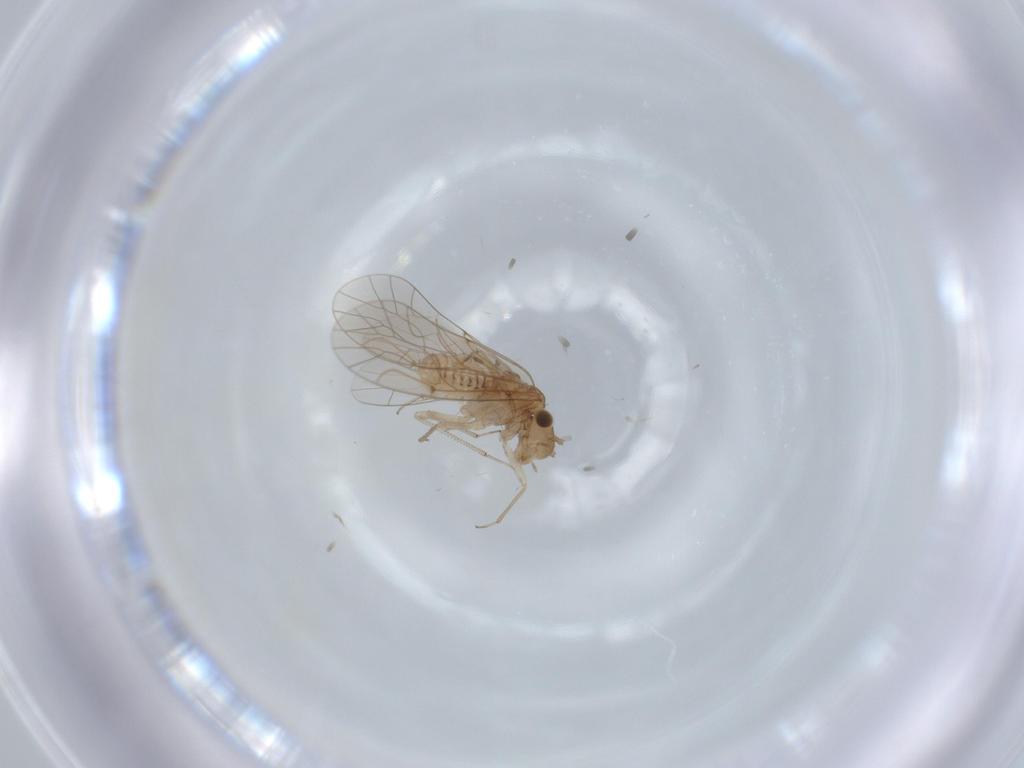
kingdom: Animalia
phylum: Arthropoda
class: Insecta
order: Psocodea
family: Lachesillidae
